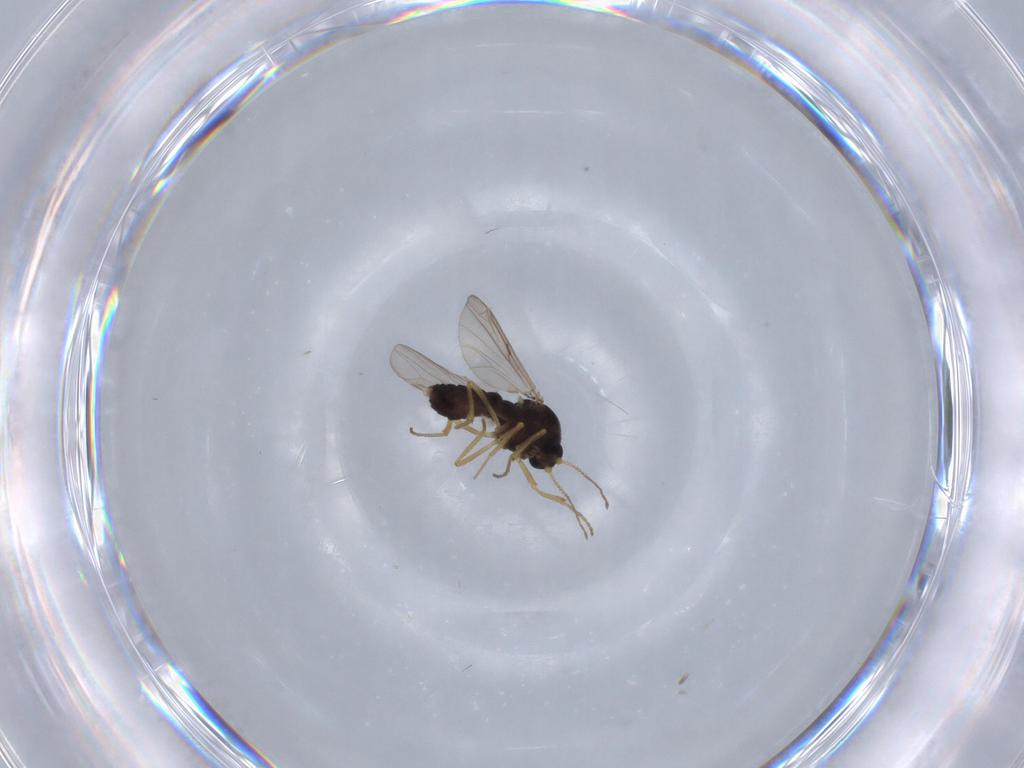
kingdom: Animalia
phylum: Arthropoda
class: Insecta
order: Diptera
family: Ceratopogonidae
